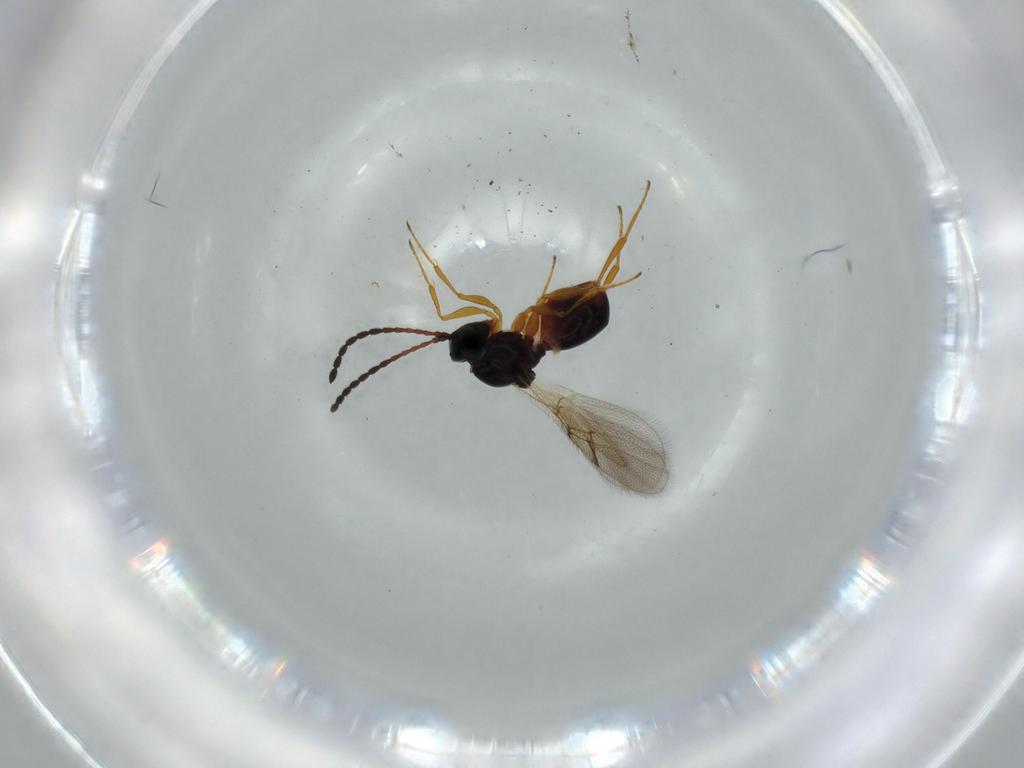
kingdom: Animalia
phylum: Arthropoda
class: Insecta
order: Hymenoptera
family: Figitidae
